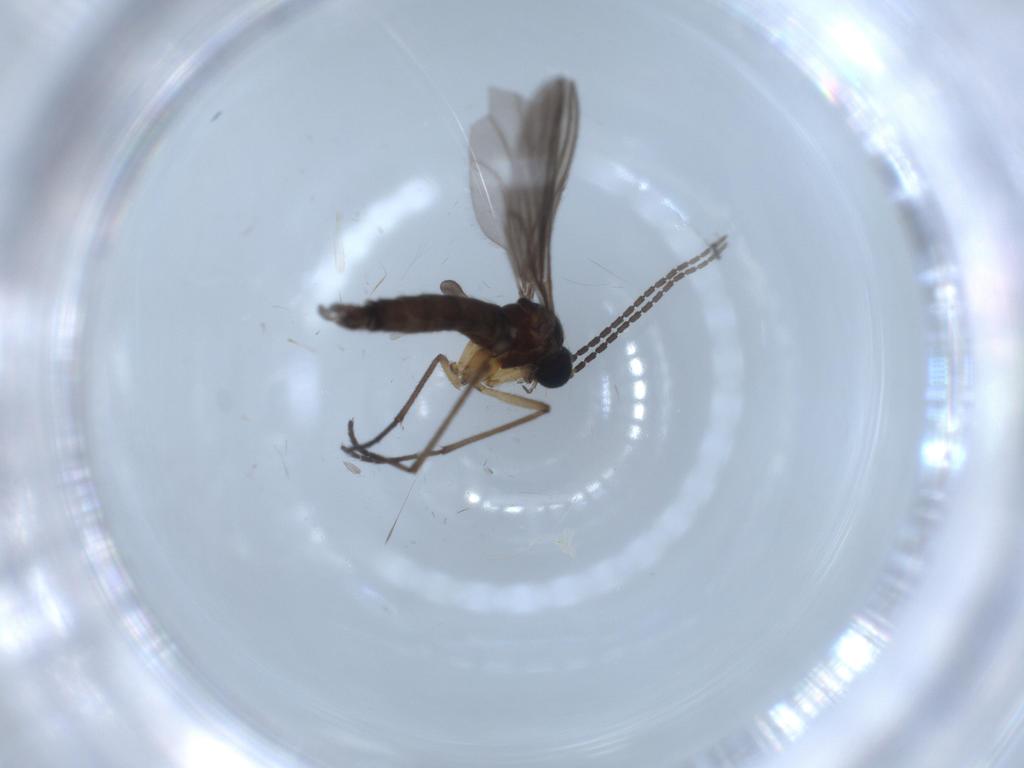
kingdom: Animalia
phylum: Arthropoda
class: Insecta
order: Diptera
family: Sciaridae
